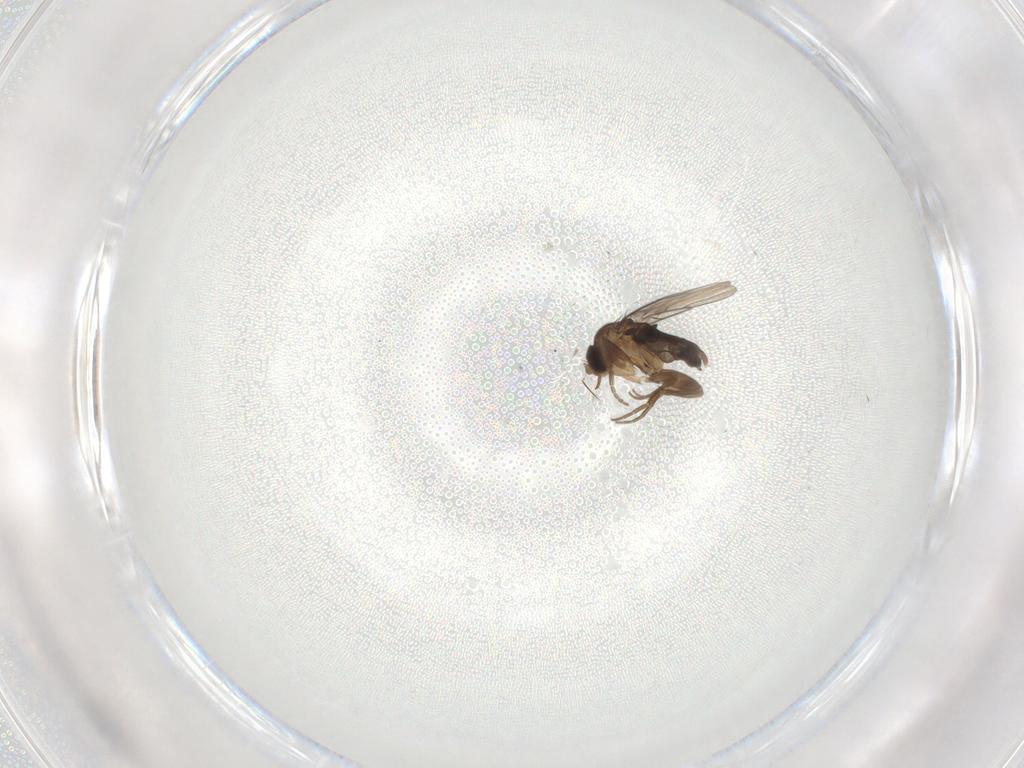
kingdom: Animalia
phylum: Arthropoda
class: Insecta
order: Diptera
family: Phoridae
